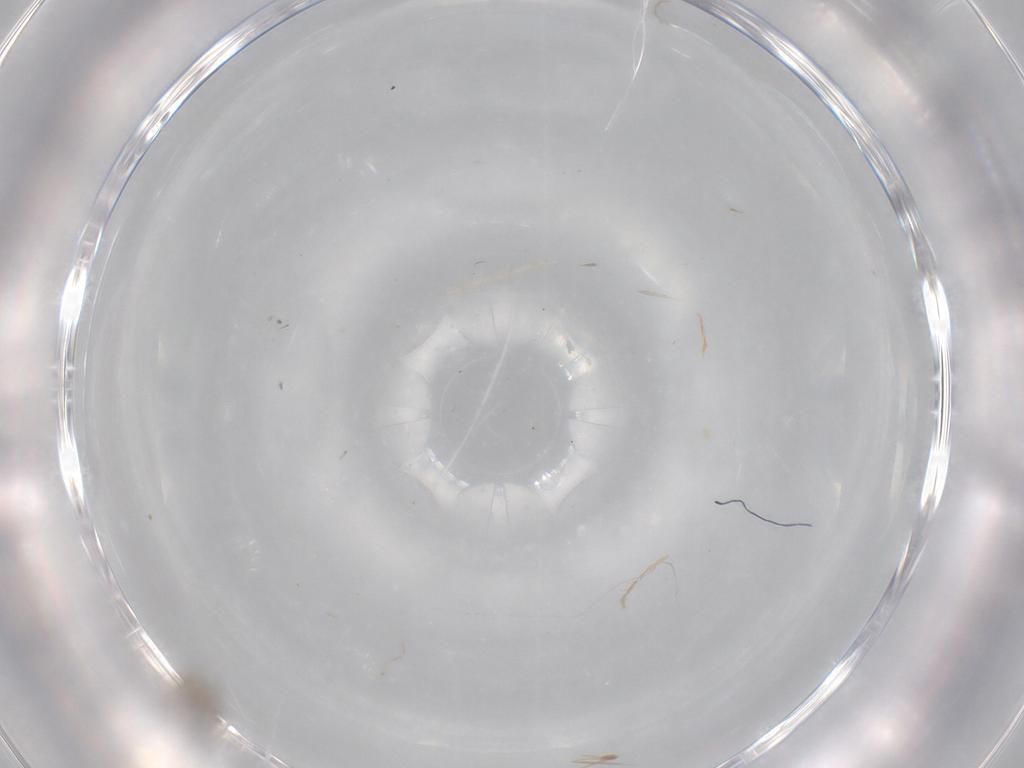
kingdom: Animalia
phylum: Arthropoda
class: Insecta
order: Diptera
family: Cecidomyiidae
